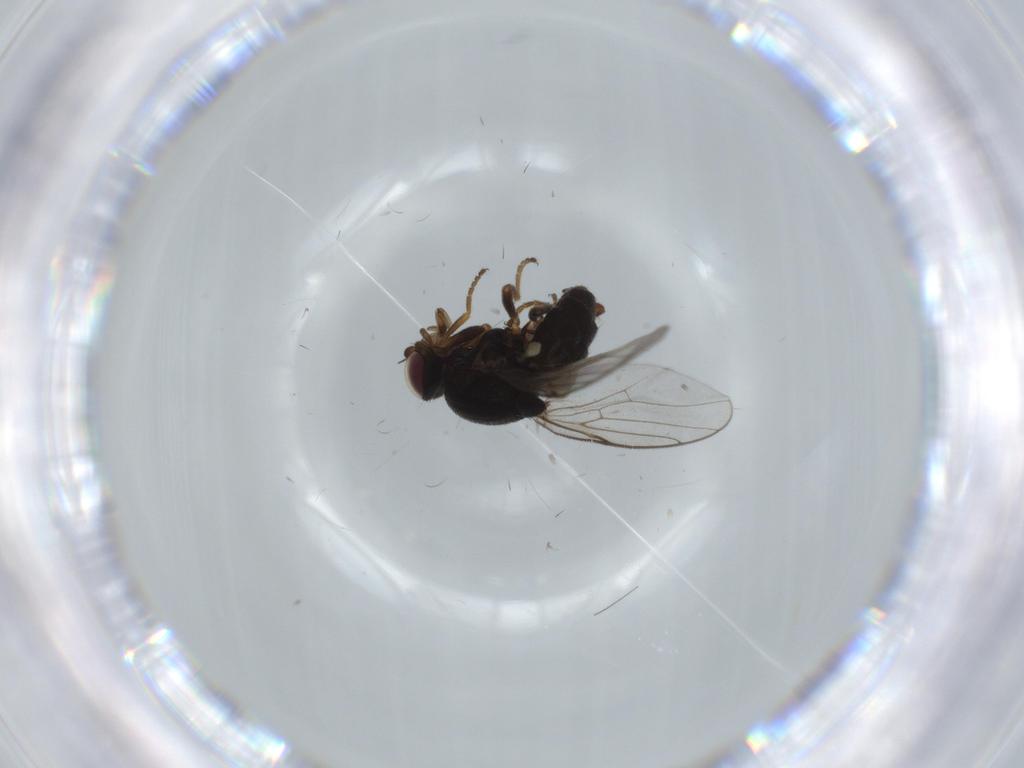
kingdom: Animalia
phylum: Arthropoda
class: Insecta
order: Diptera
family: Chloropidae
